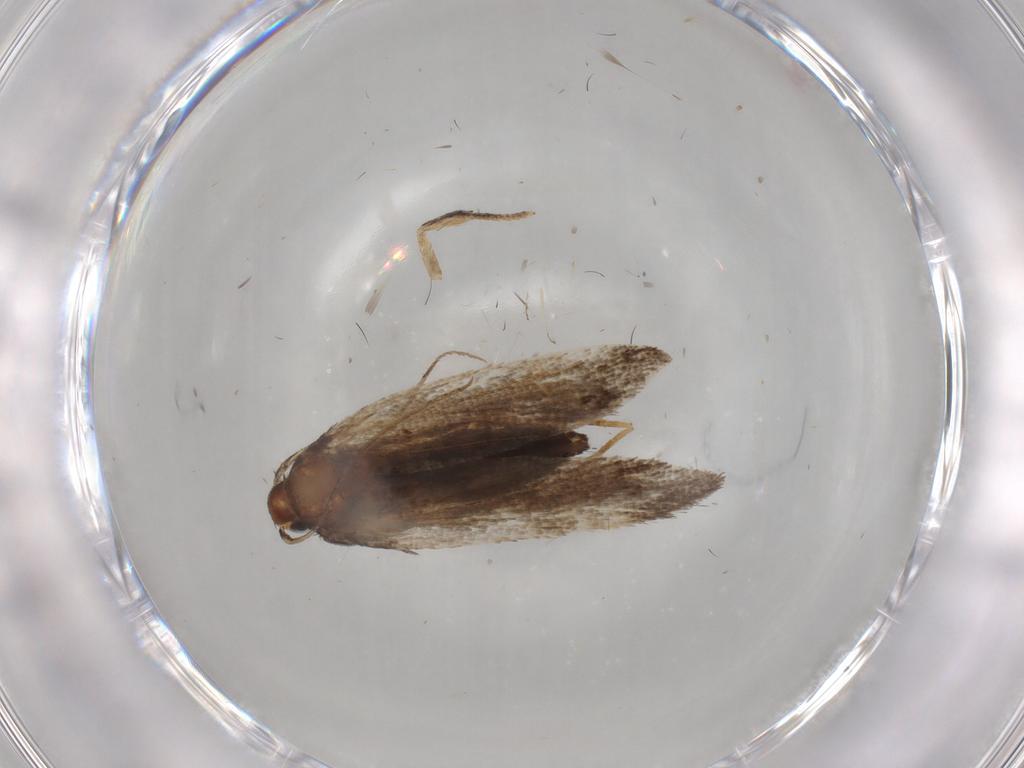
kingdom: Animalia
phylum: Arthropoda
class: Insecta
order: Lepidoptera
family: Cosmopterigidae
